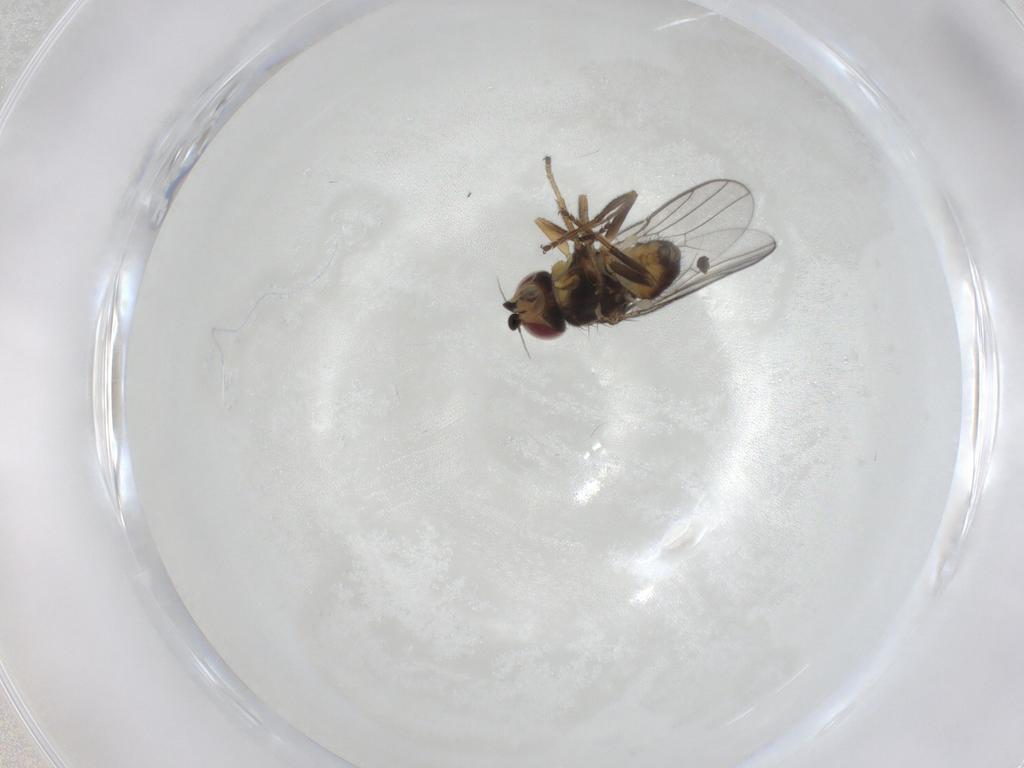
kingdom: Animalia
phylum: Arthropoda
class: Insecta
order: Diptera
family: Chloropidae
